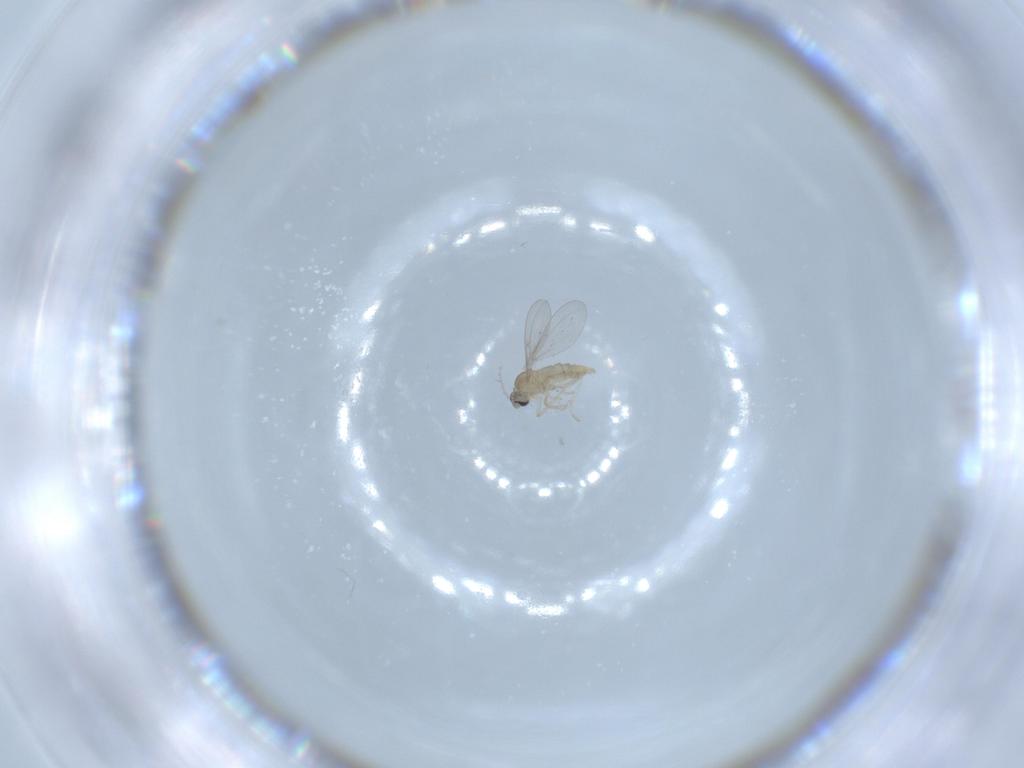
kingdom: Animalia
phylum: Arthropoda
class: Insecta
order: Diptera
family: Cecidomyiidae
